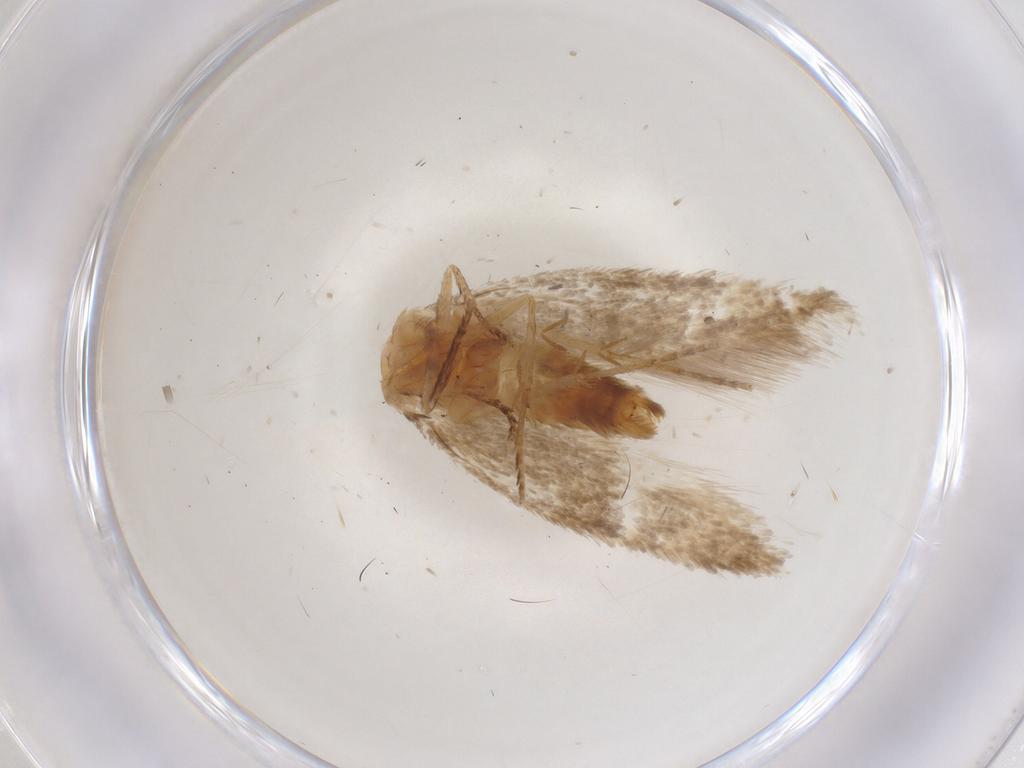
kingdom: Animalia
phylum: Arthropoda
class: Insecta
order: Lepidoptera
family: Nepticulidae
